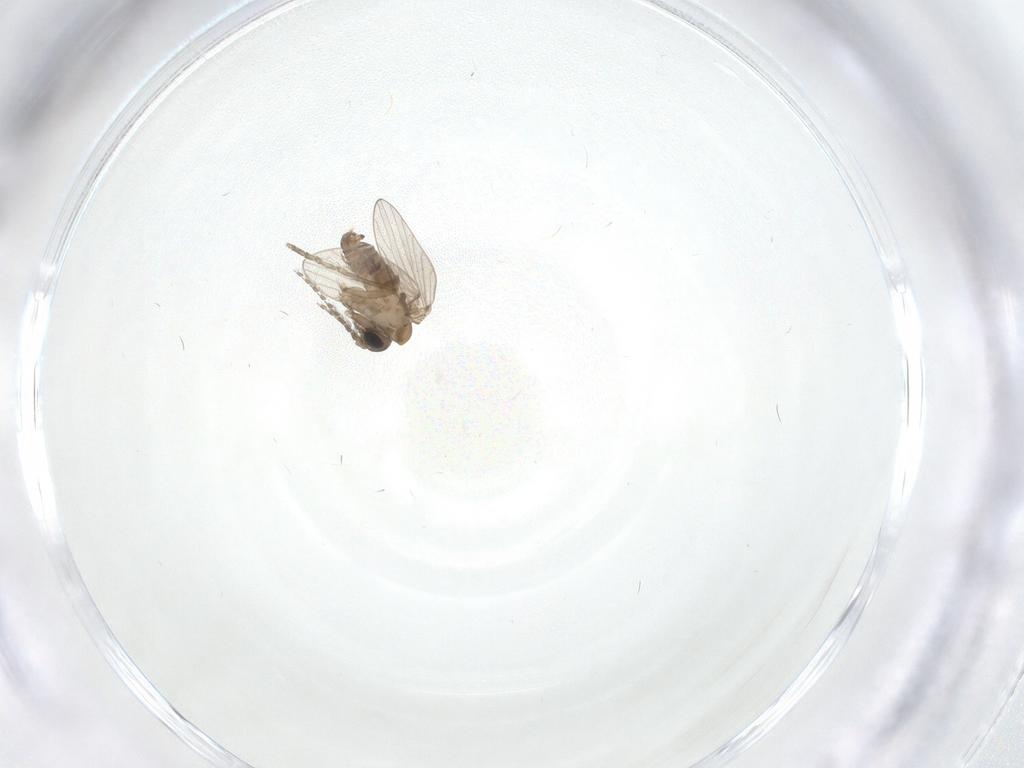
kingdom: Animalia
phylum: Arthropoda
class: Insecta
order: Diptera
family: Psychodidae
